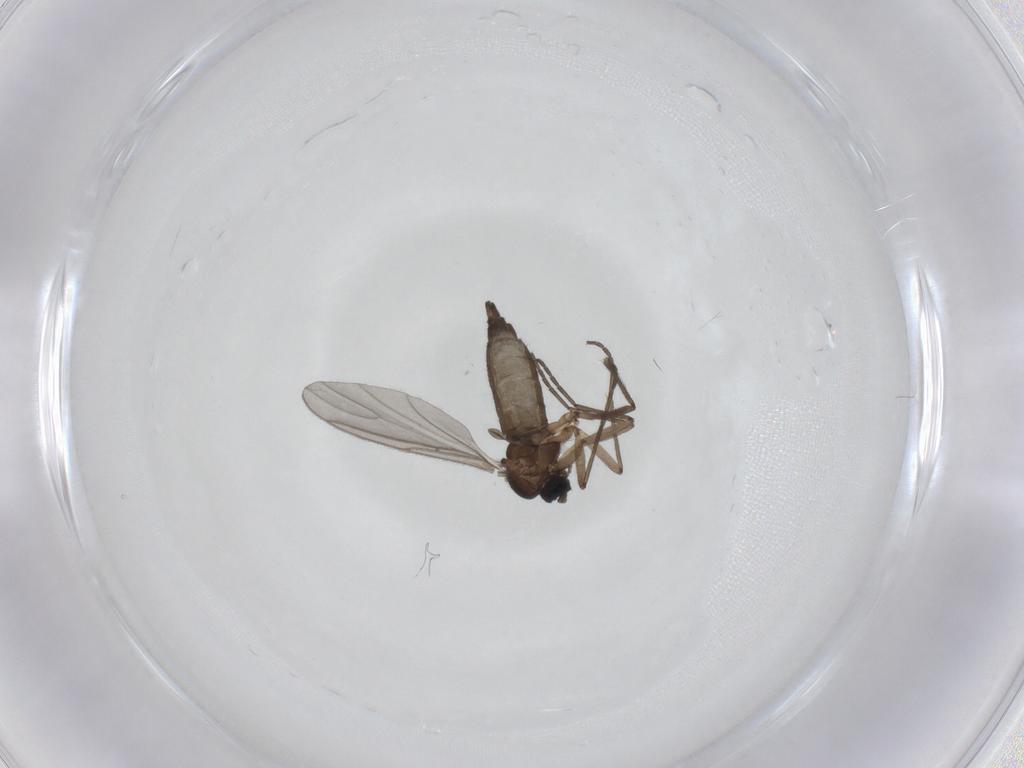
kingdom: Animalia
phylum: Arthropoda
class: Insecta
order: Diptera
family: Sciaridae
